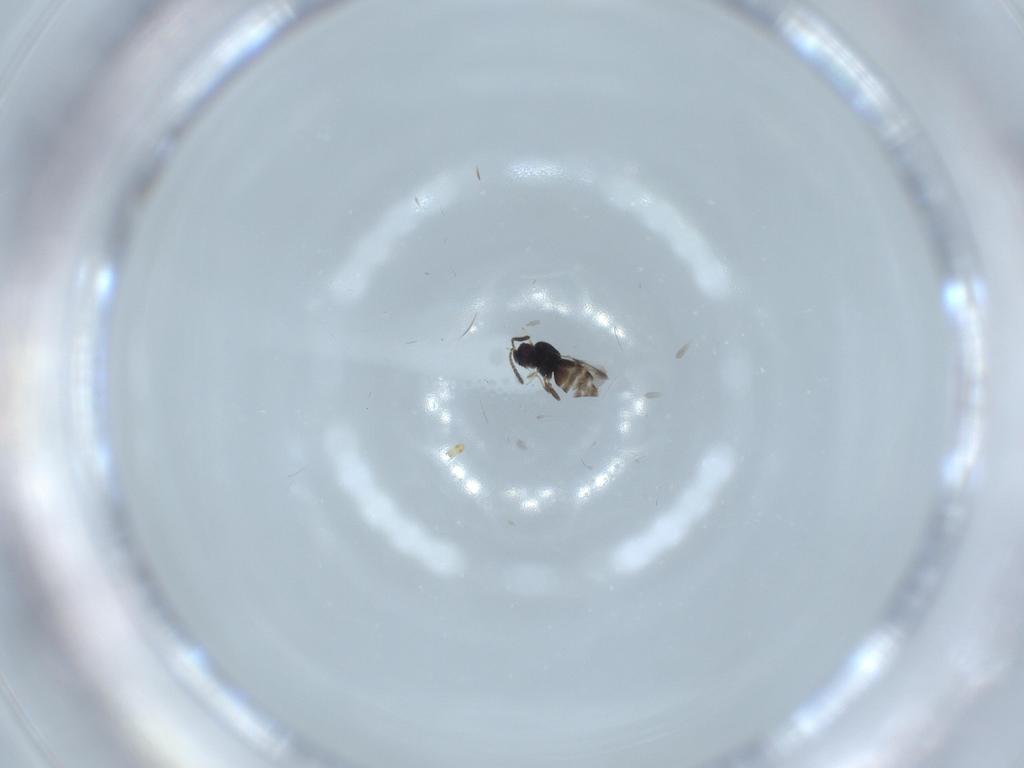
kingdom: Animalia
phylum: Arthropoda
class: Insecta
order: Hymenoptera
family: Ceraphronidae
